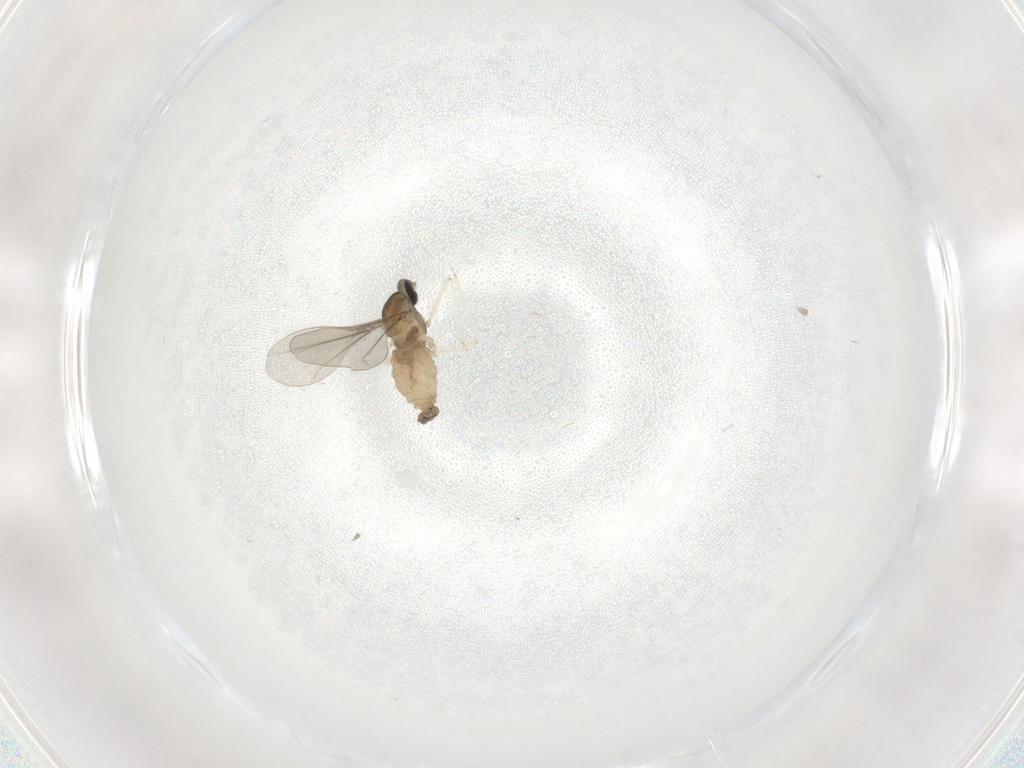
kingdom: Animalia
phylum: Arthropoda
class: Insecta
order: Diptera
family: Cecidomyiidae
